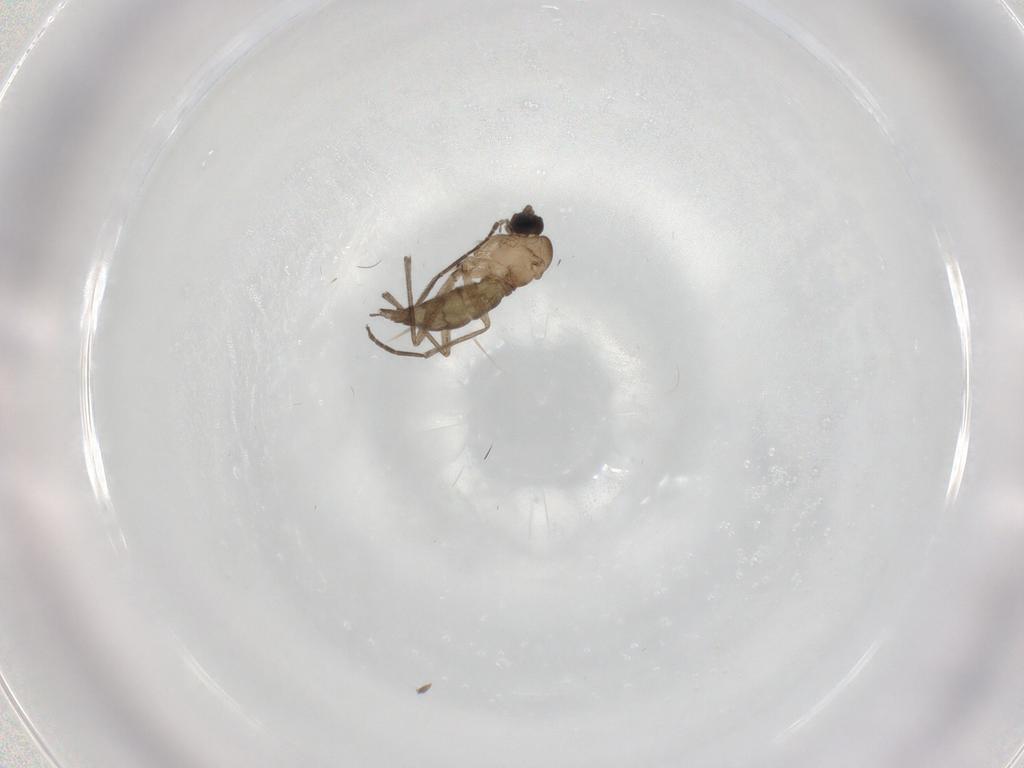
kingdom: Animalia
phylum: Arthropoda
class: Insecta
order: Diptera
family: Sciaridae
